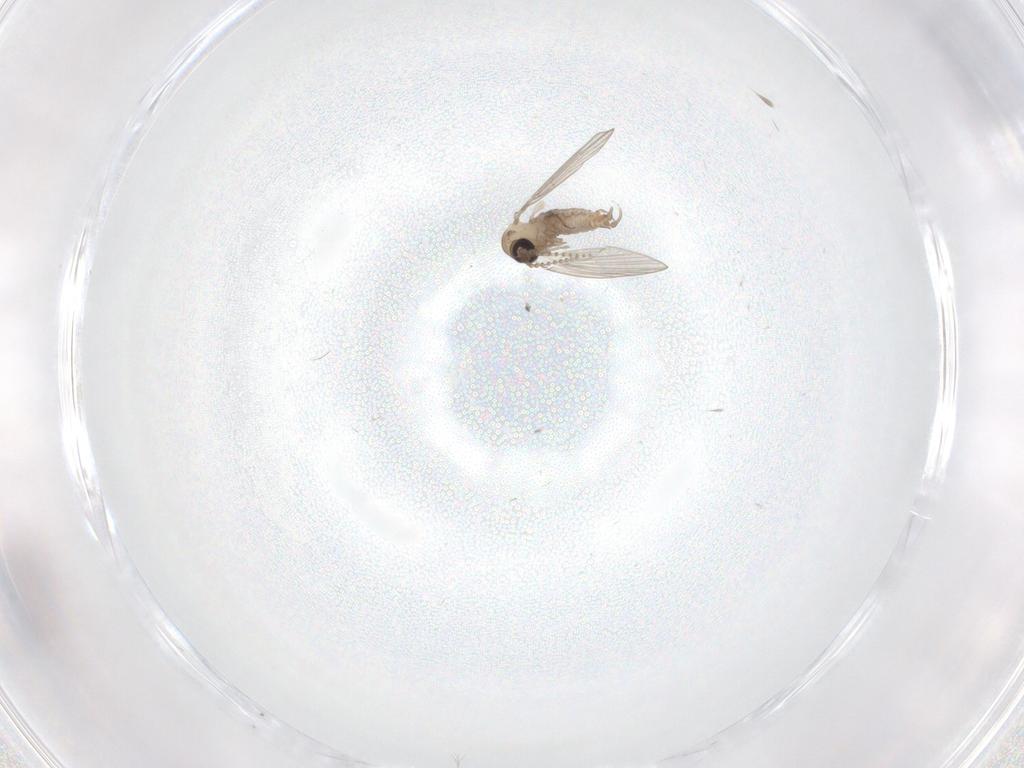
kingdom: Animalia
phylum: Arthropoda
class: Insecta
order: Diptera
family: Psychodidae
